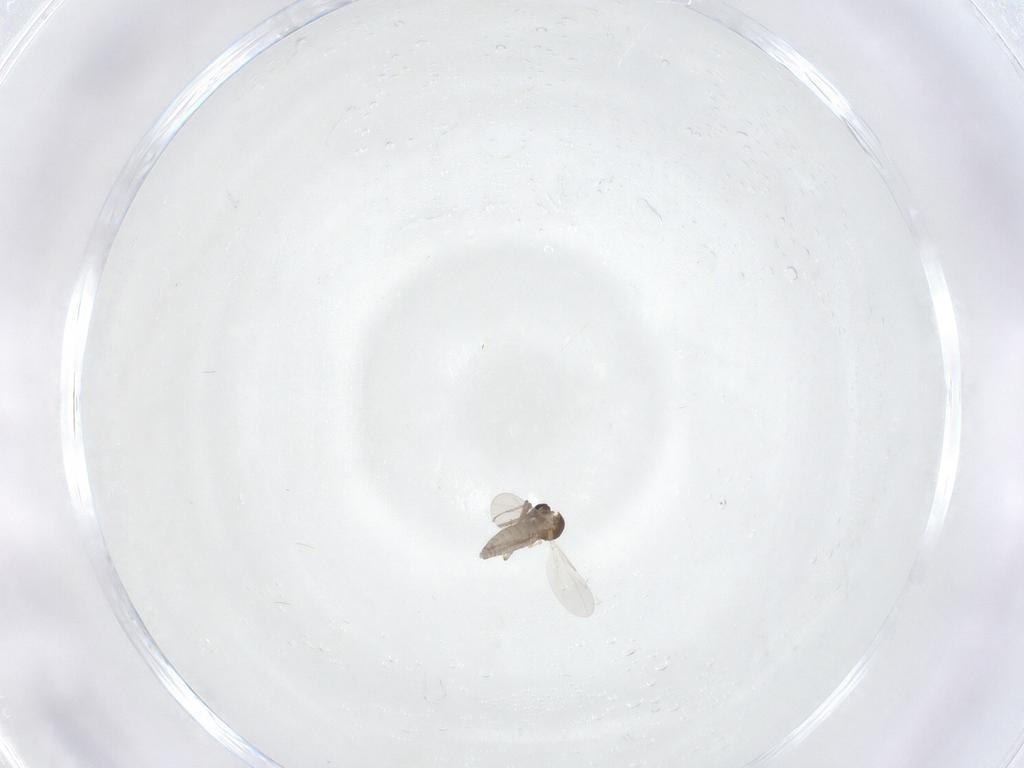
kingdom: Animalia
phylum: Arthropoda
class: Insecta
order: Diptera
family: Ceratopogonidae
